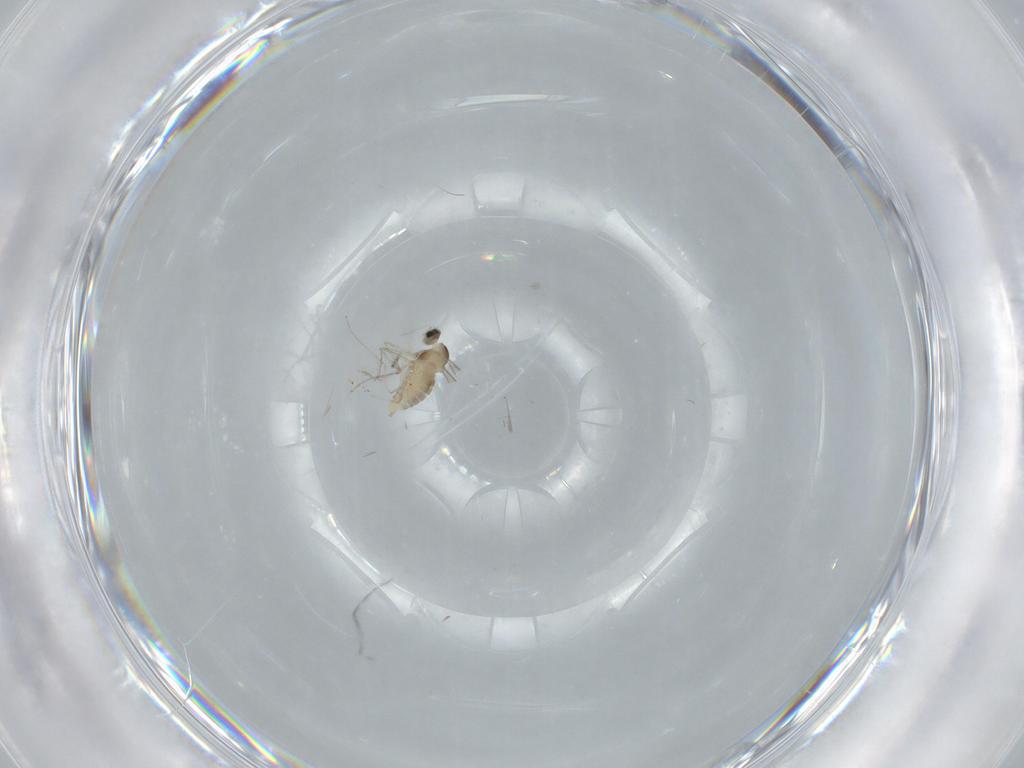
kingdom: Animalia
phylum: Arthropoda
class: Insecta
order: Diptera
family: Cecidomyiidae
